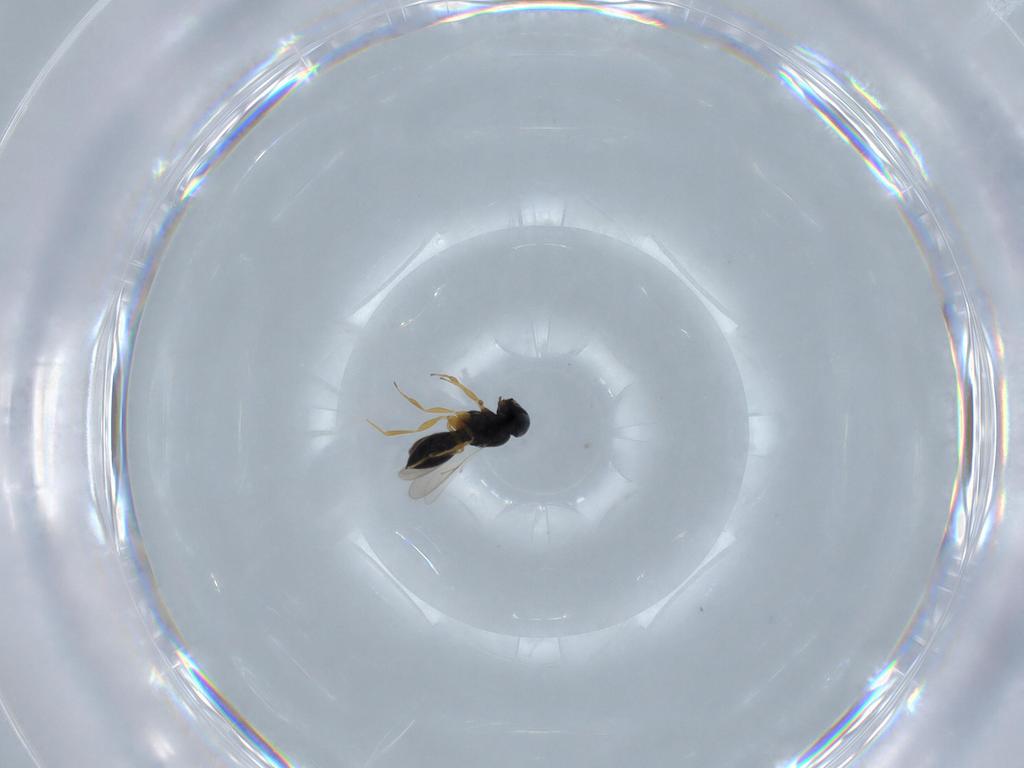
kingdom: Animalia
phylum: Arthropoda
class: Insecta
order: Hymenoptera
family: Scelionidae
